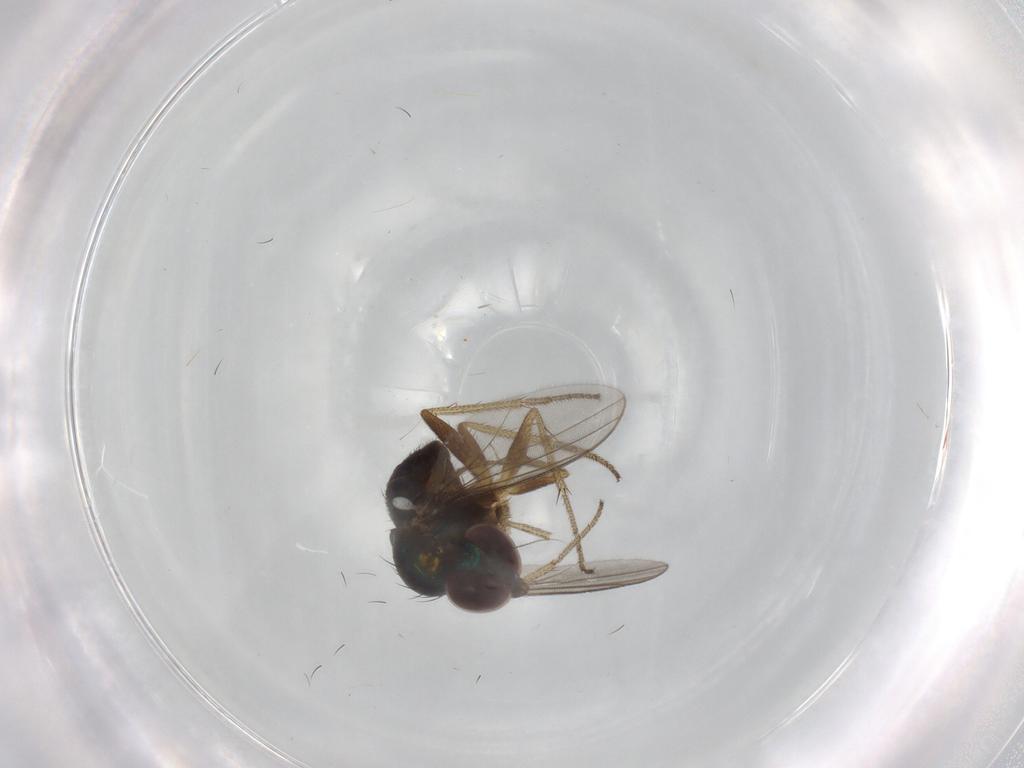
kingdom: Animalia
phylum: Arthropoda
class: Insecta
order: Diptera
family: Dolichopodidae
